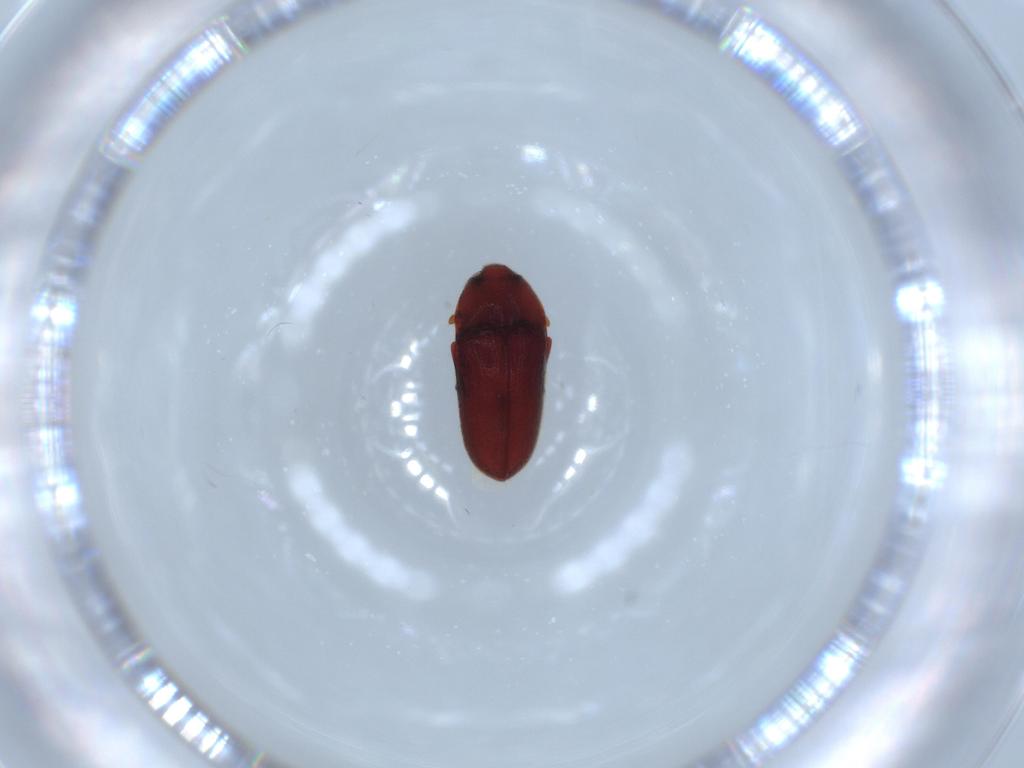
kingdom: Animalia
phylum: Arthropoda
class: Insecta
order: Coleoptera
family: Throscidae
